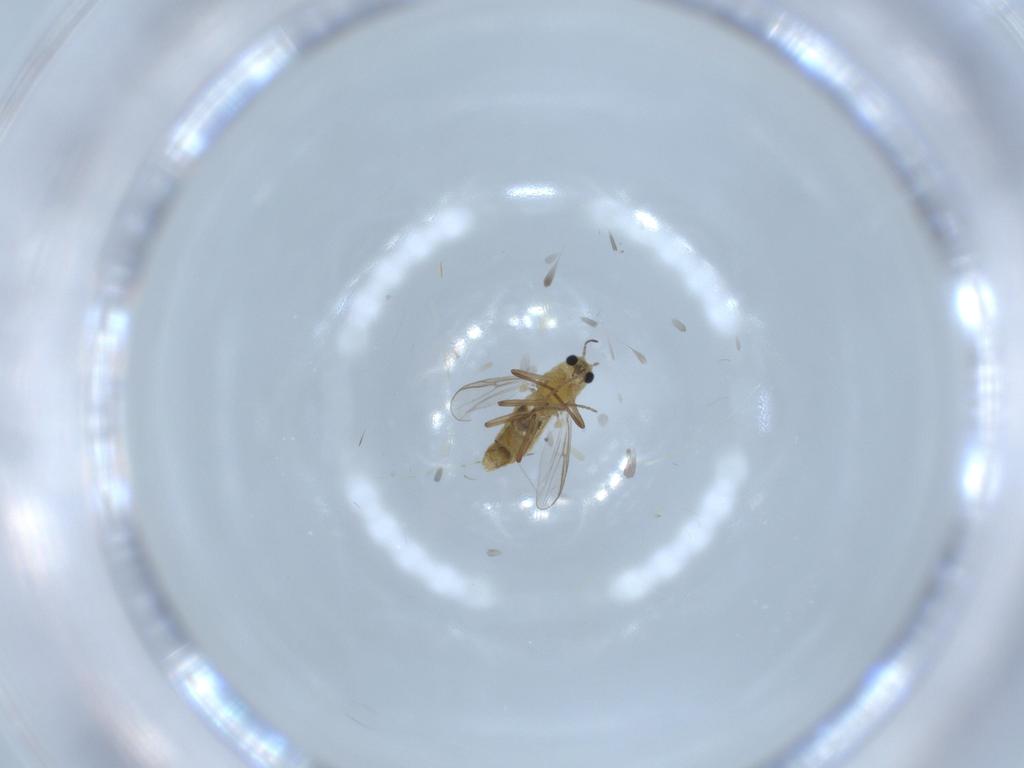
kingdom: Animalia
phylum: Arthropoda
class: Insecta
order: Diptera
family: Chironomidae
